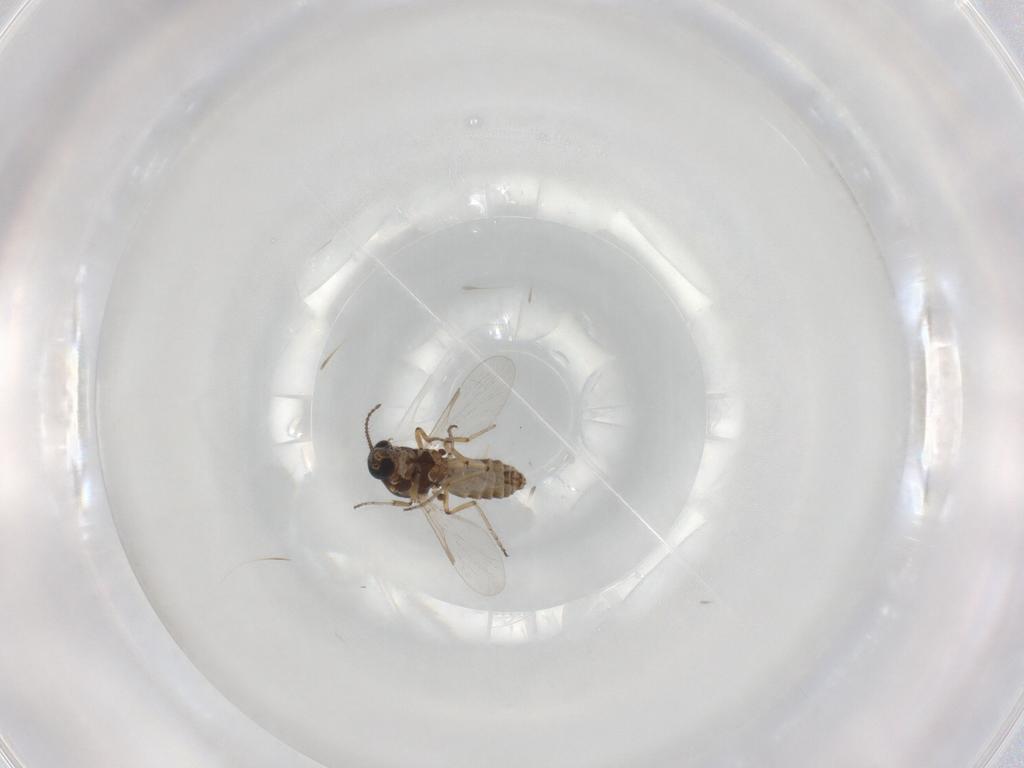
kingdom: Animalia
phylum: Arthropoda
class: Insecta
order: Diptera
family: Ceratopogonidae
